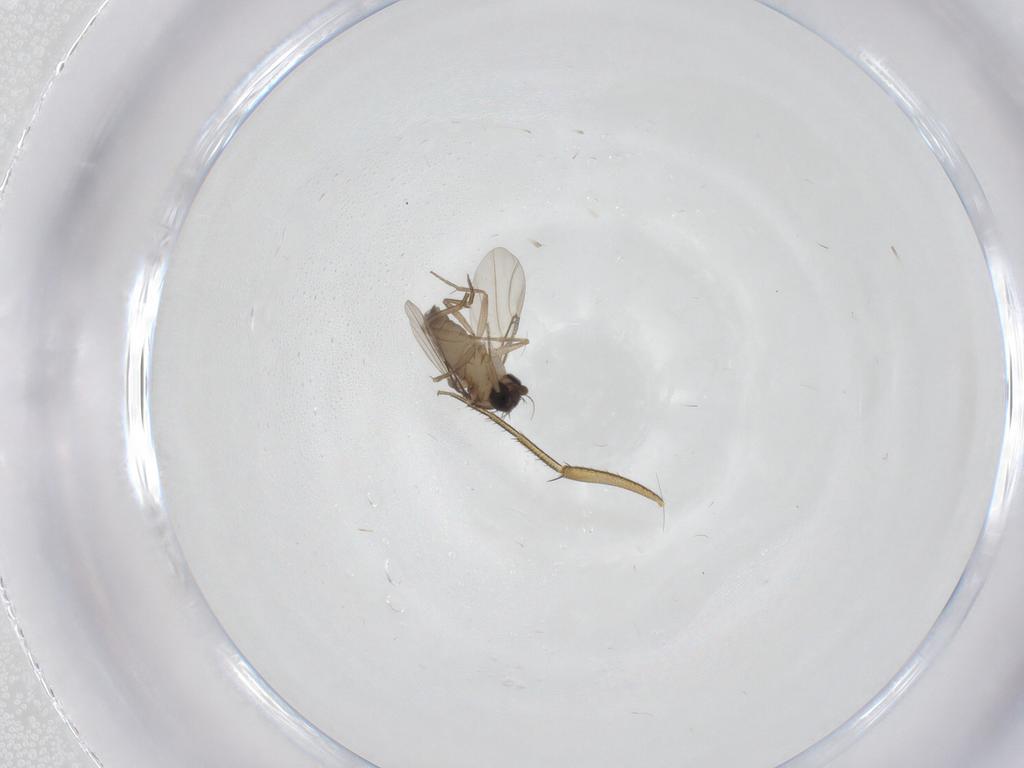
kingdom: Animalia
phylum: Arthropoda
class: Insecta
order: Diptera
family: Phoridae
